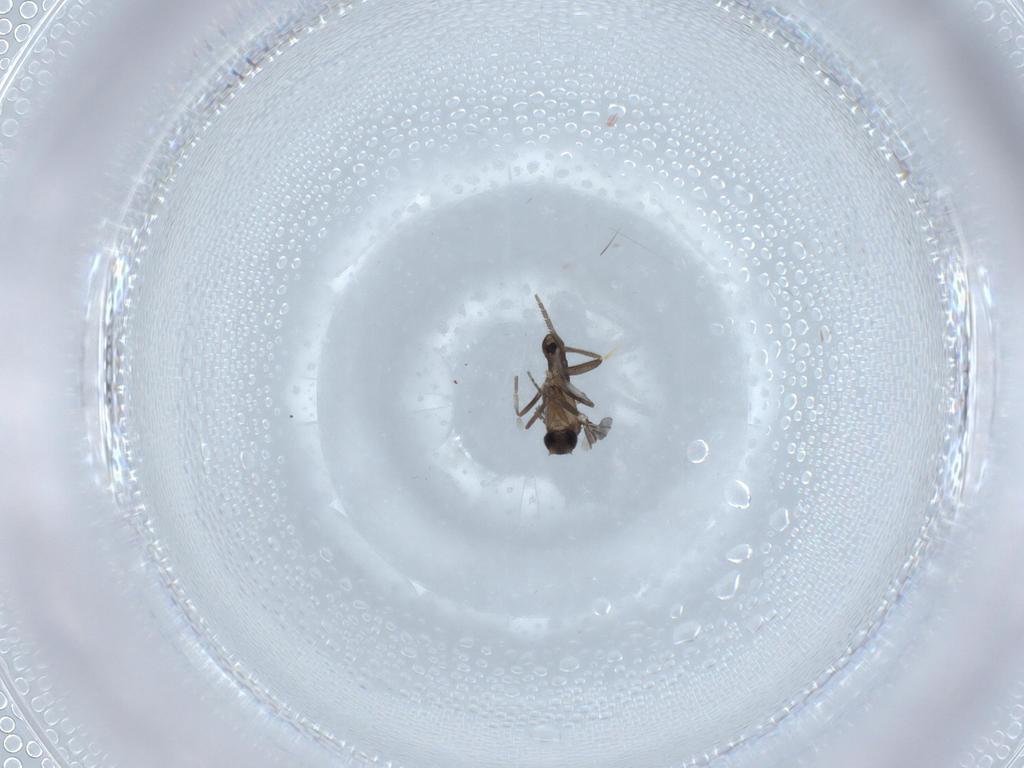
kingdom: Animalia
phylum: Arthropoda
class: Insecta
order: Diptera
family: Phoridae
